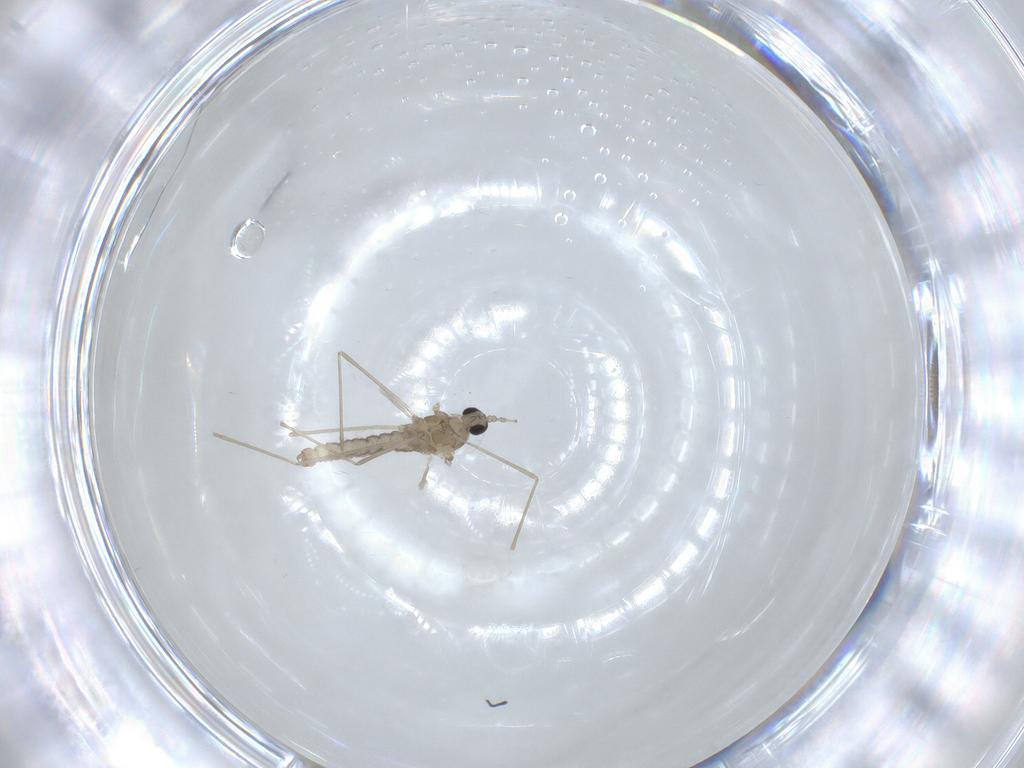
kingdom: Animalia
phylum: Arthropoda
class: Insecta
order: Diptera
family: Cecidomyiidae
